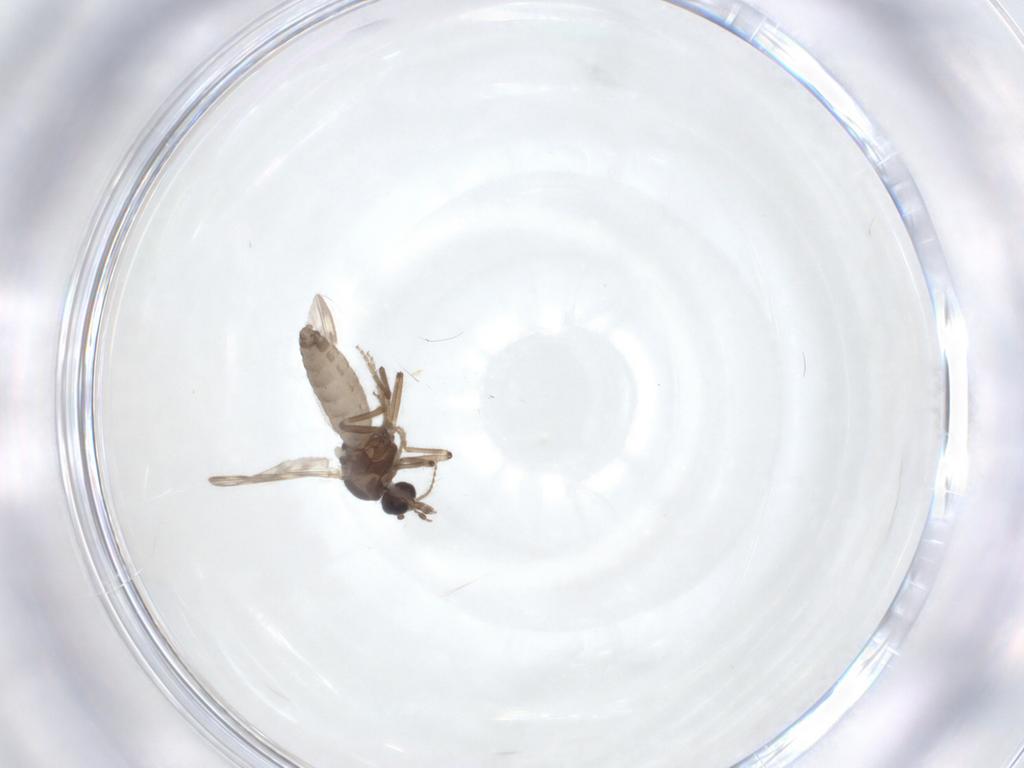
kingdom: Animalia
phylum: Arthropoda
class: Insecta
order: Diptera
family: Ceratopogonidae
